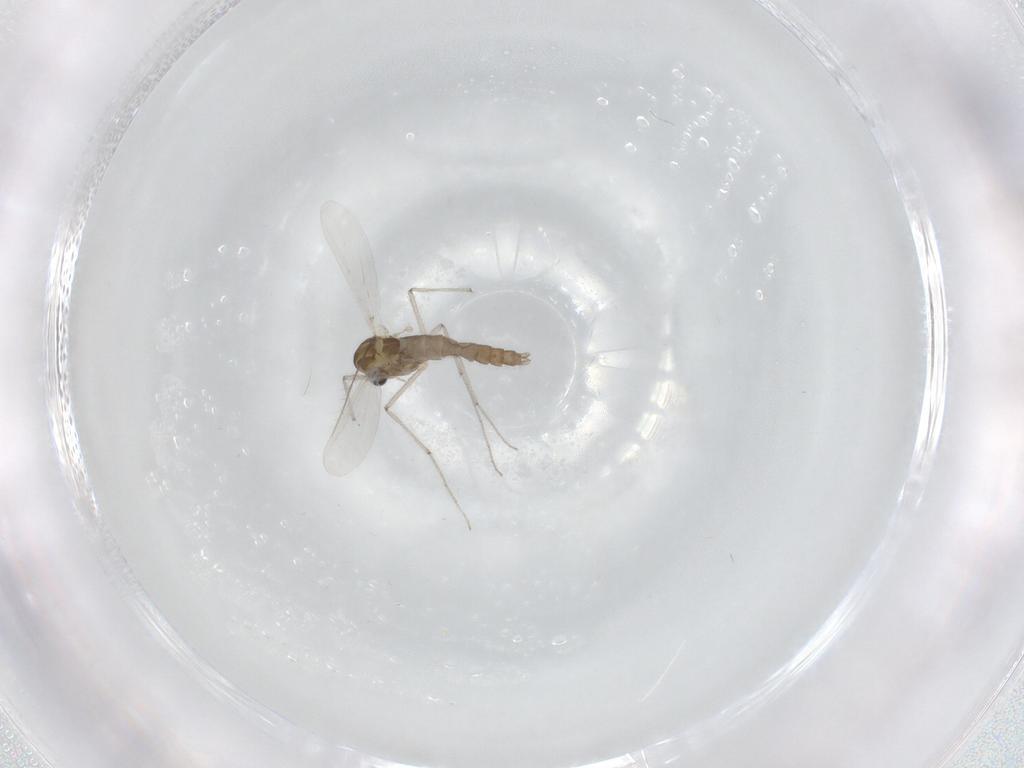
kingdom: Animalia
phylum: Arthropoda
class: Insecta
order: Diptera
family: Chironomidae
